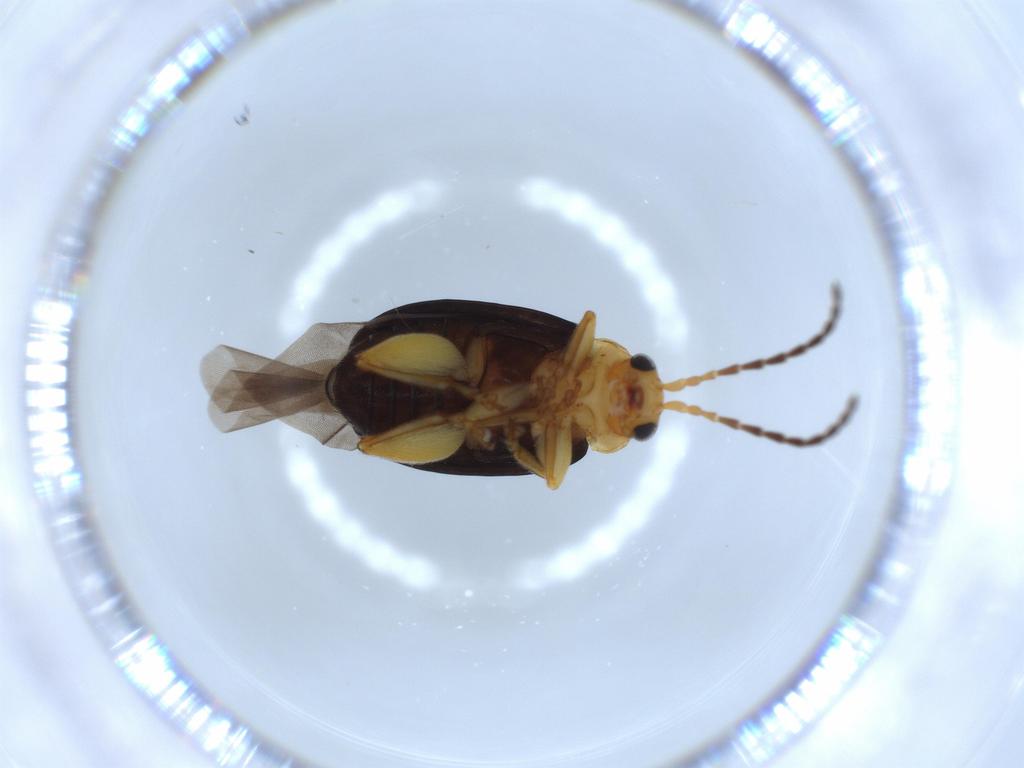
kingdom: Animalia
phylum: Arthropoda
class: Insecta
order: Coleoptera
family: Chrysomelidae
